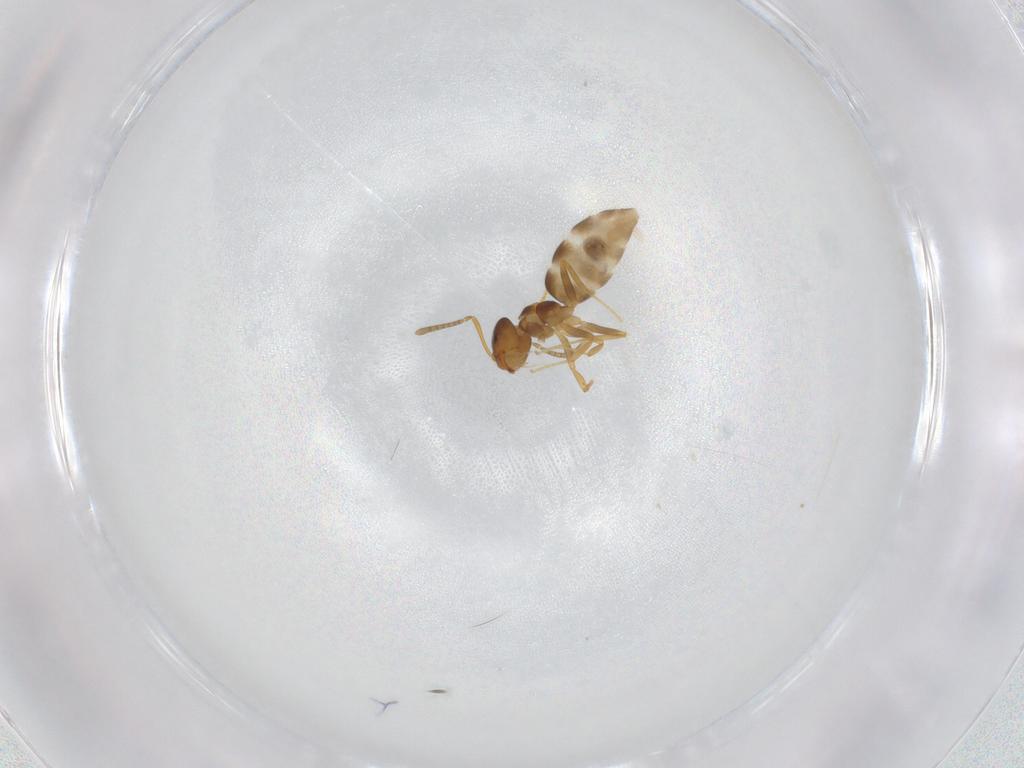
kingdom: Animalia
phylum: Arthropoda
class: Insecta
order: Hymenoptera
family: Formicidae
